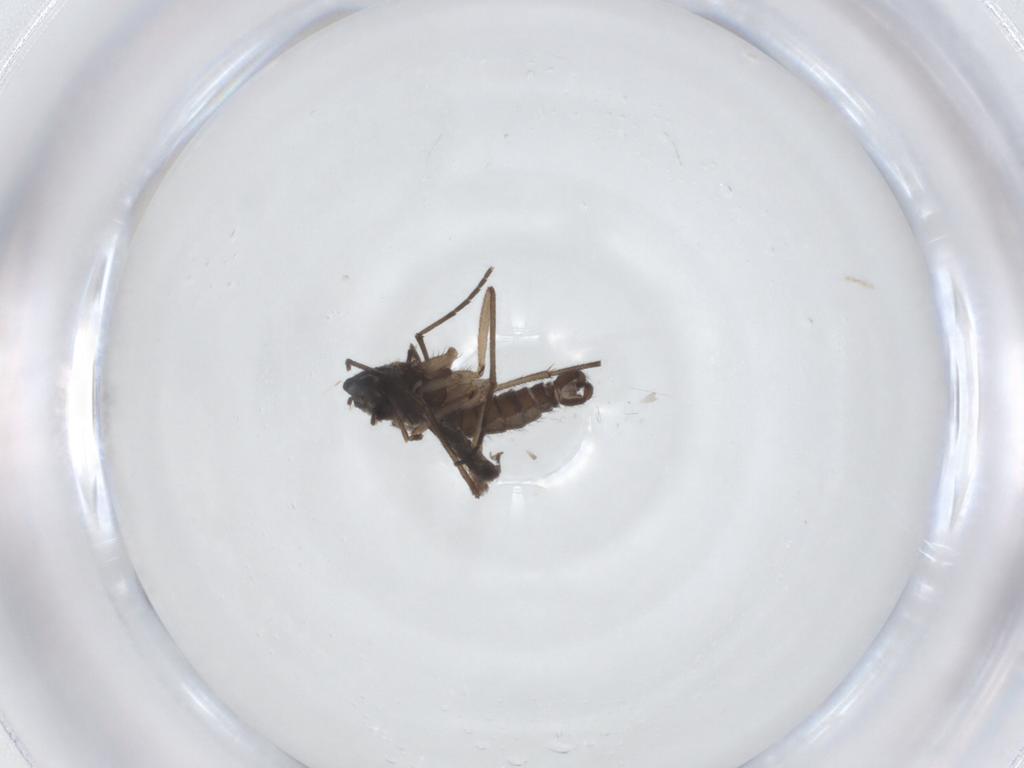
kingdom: Animalia
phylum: Arthropoda
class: Insecta
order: Diptera
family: Sciaridae
